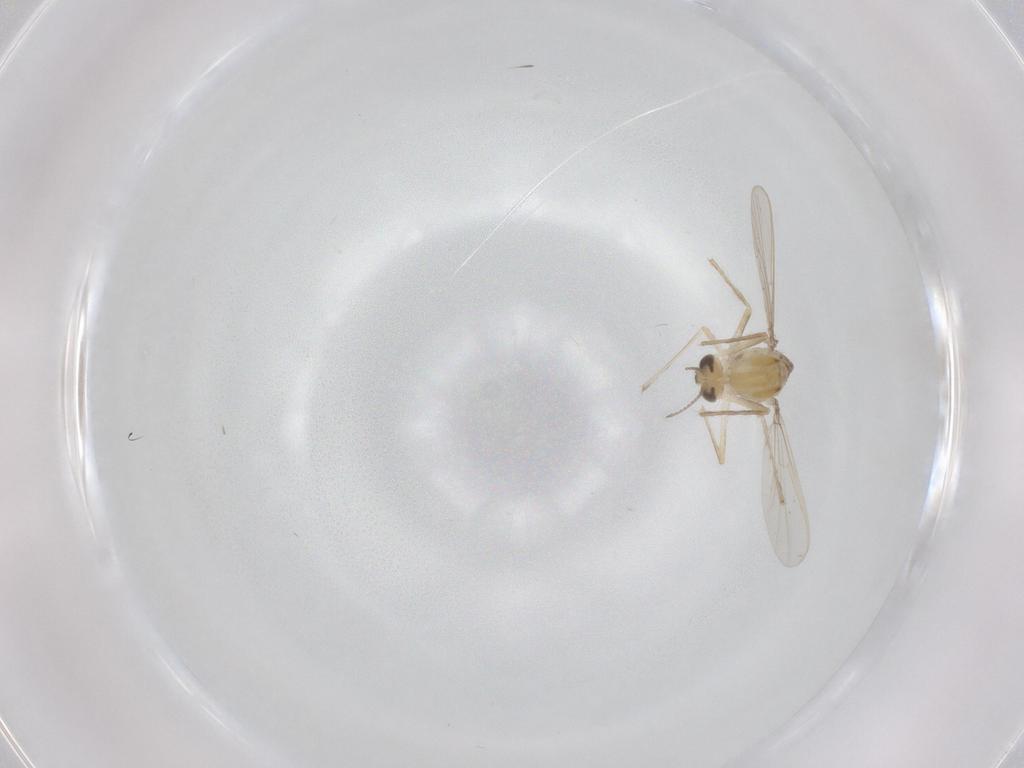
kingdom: Animalia
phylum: Arthropoda
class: Insecta
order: Diptera
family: Chironomidae
